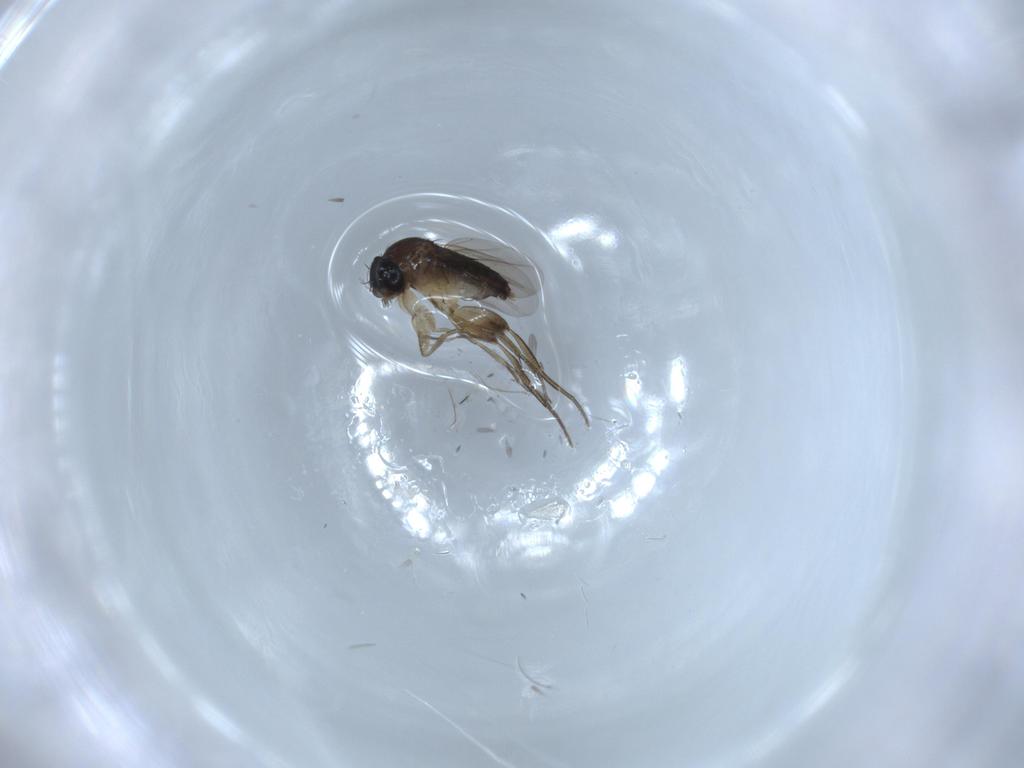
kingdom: Animalia
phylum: Arthropoda
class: Insecta
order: Diptera
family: Phoridae
